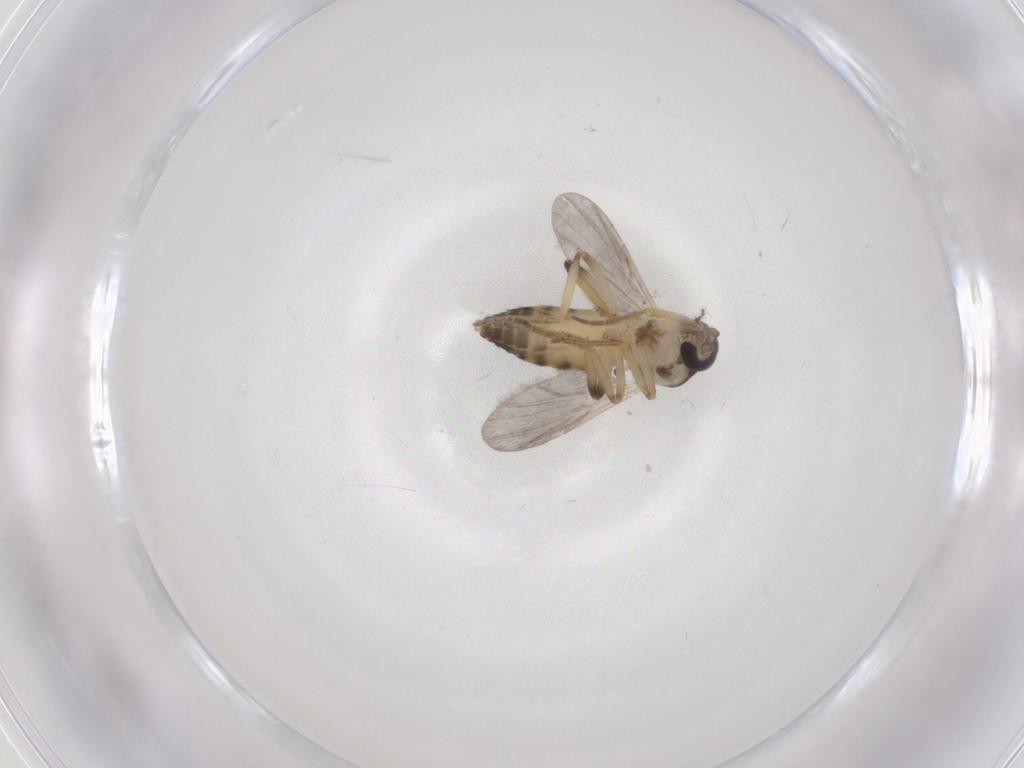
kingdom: Animalia
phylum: Arthropoda
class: Insecta
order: Diptera
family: Ceratopogonidae
